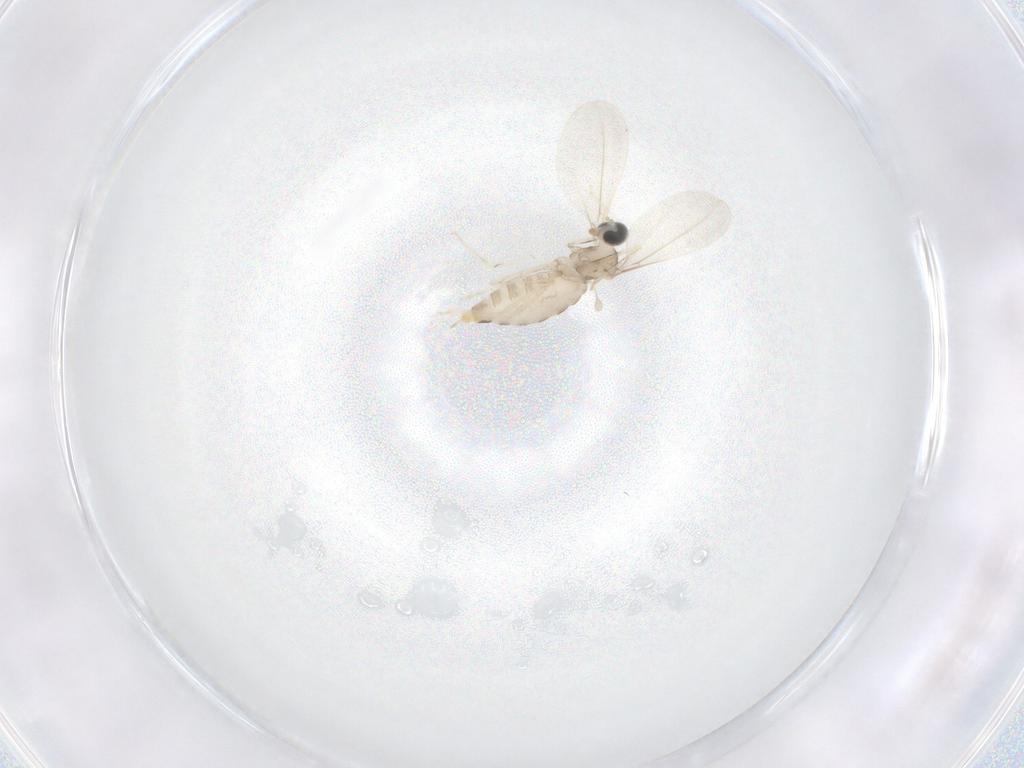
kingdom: Animalia
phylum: Arthropoda
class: Insecta
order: Diptera
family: Cecidomyiidae
